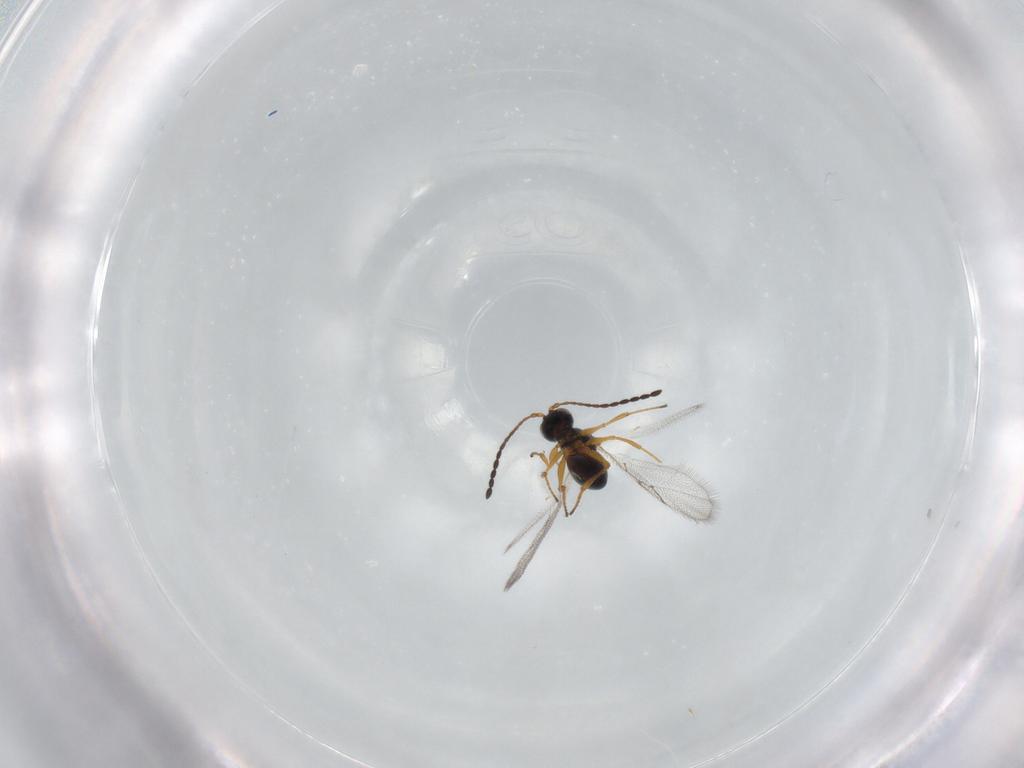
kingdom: Animalia
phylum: Arthropoda
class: Insecta
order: Hymenoptera
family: Figitidae
